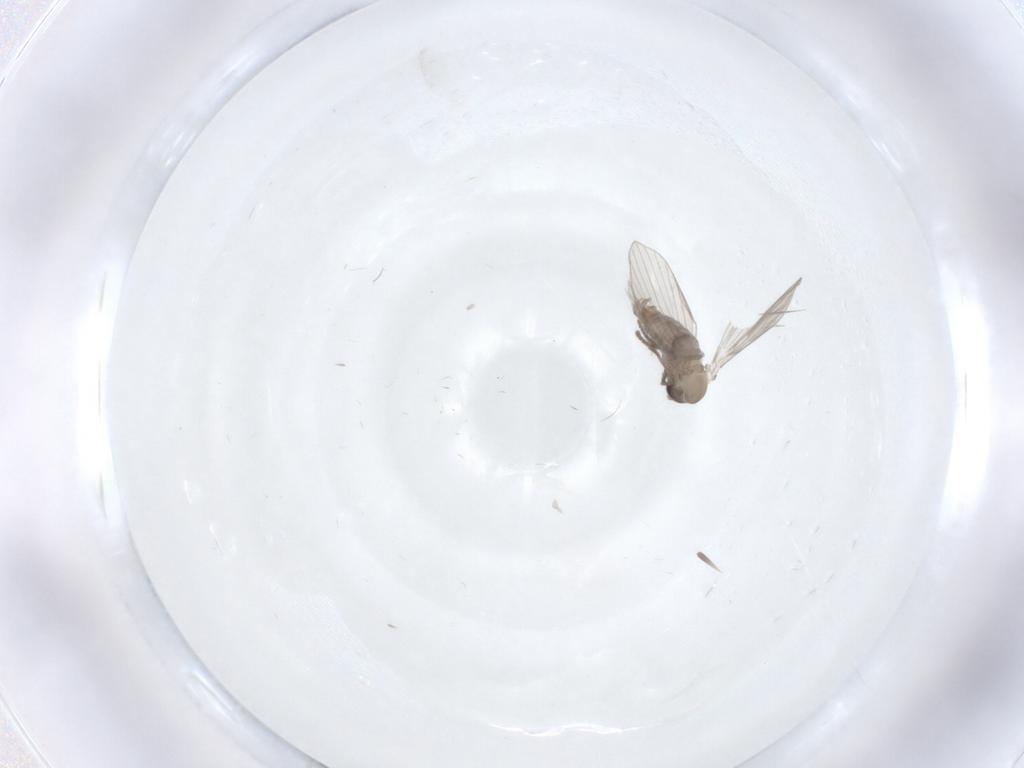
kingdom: Animalia
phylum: Arthropoda
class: Insecta
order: Diptera
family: Psychodidae
